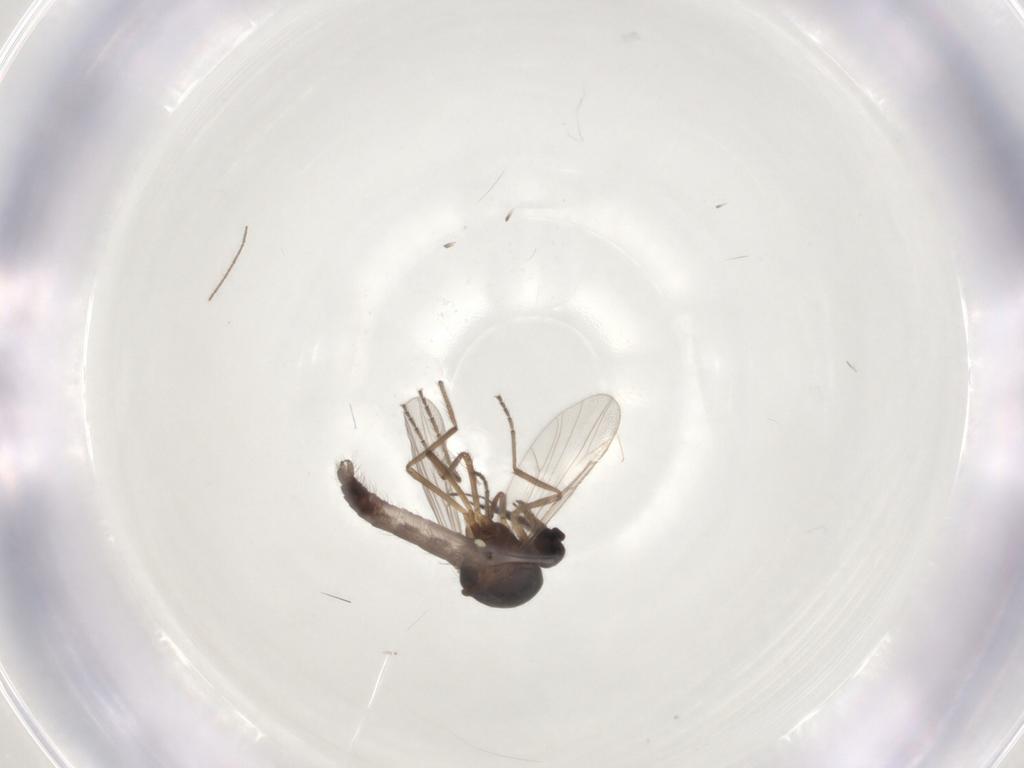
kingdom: Animalia
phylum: Arthropoda
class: Insecta
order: Diptera
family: Ceratopogonidae
